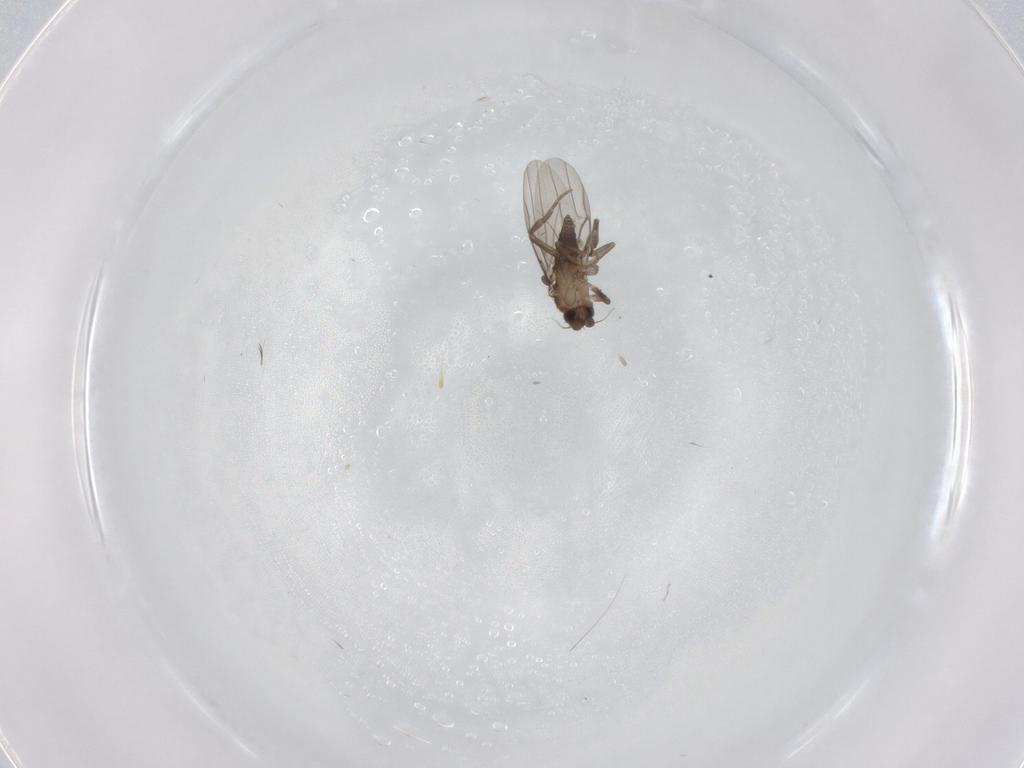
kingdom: Animalia
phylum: Arthropoda
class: Insecta
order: Diptera
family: Phoridae
